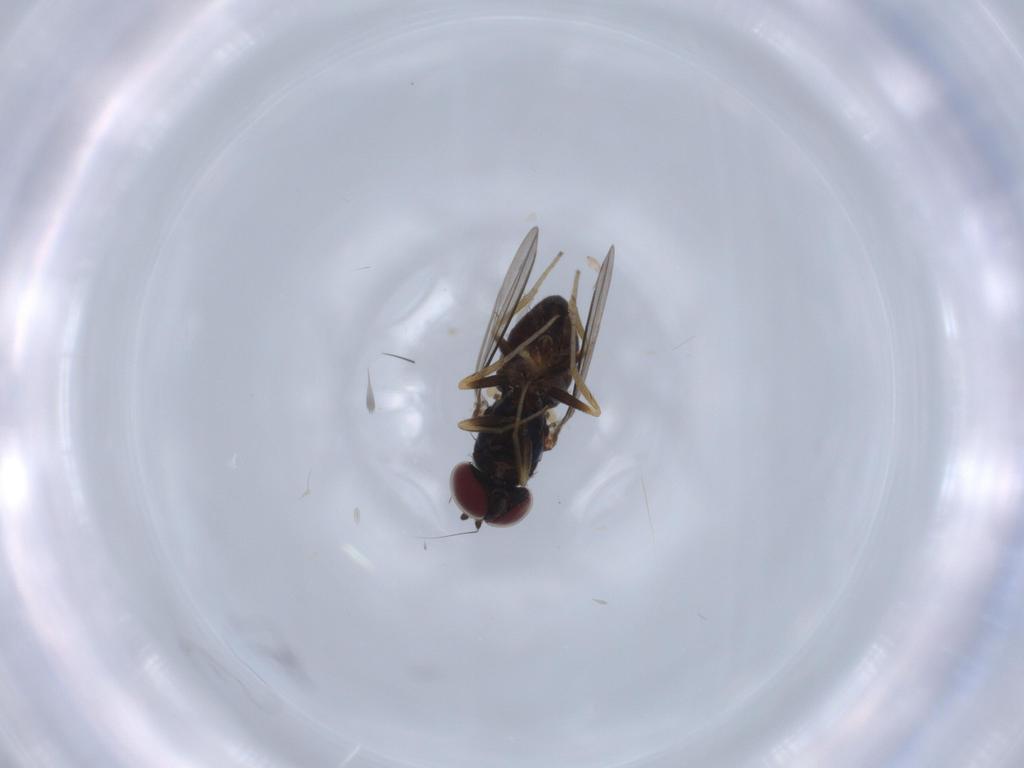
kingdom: Animalia
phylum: Arthropoda
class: Insecta
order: Diptera
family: Dolichopodidae
